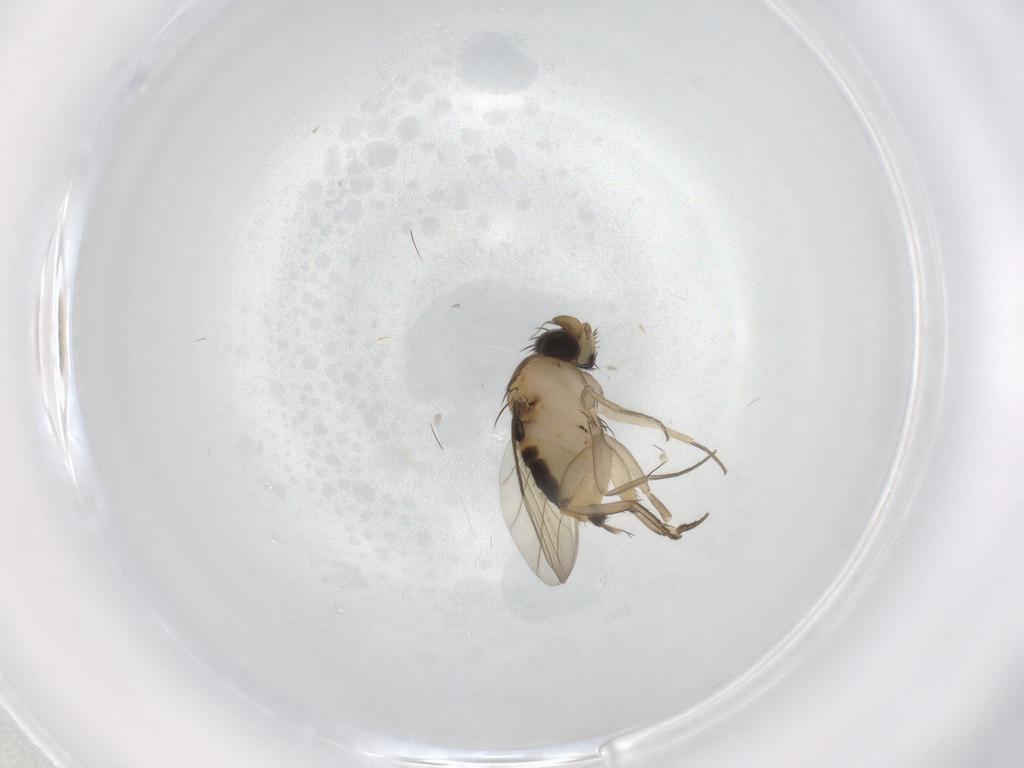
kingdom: Animalia
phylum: Arthropoda
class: Insecta
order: Diptera
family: Phoridae
